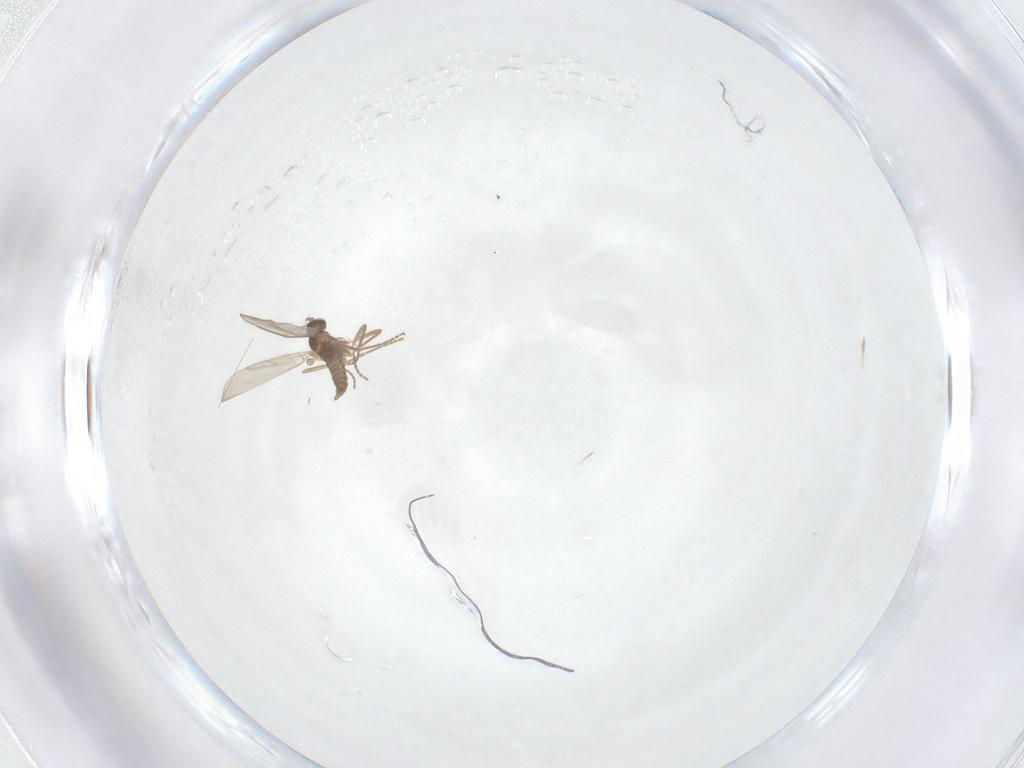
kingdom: Animalia
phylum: Arthropoda
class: Insecta
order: Diptera
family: Cecidomyiidae
